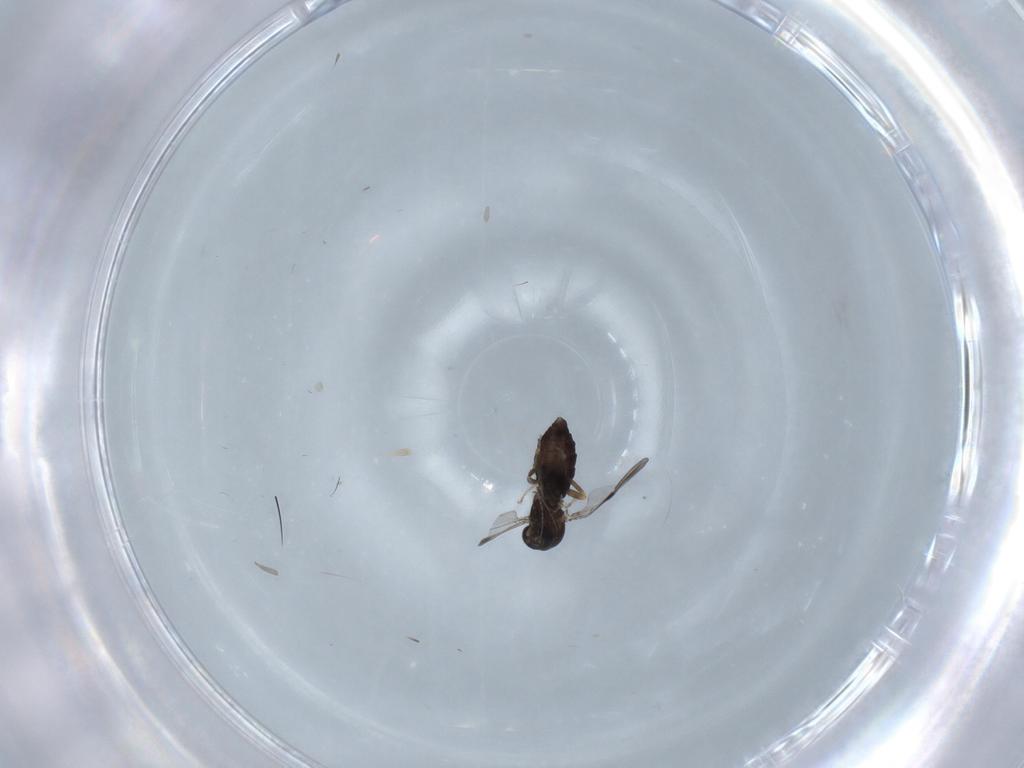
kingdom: Animalia
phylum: Arthropoda
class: Insecta
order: Diptera
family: Ceratopogonidae
